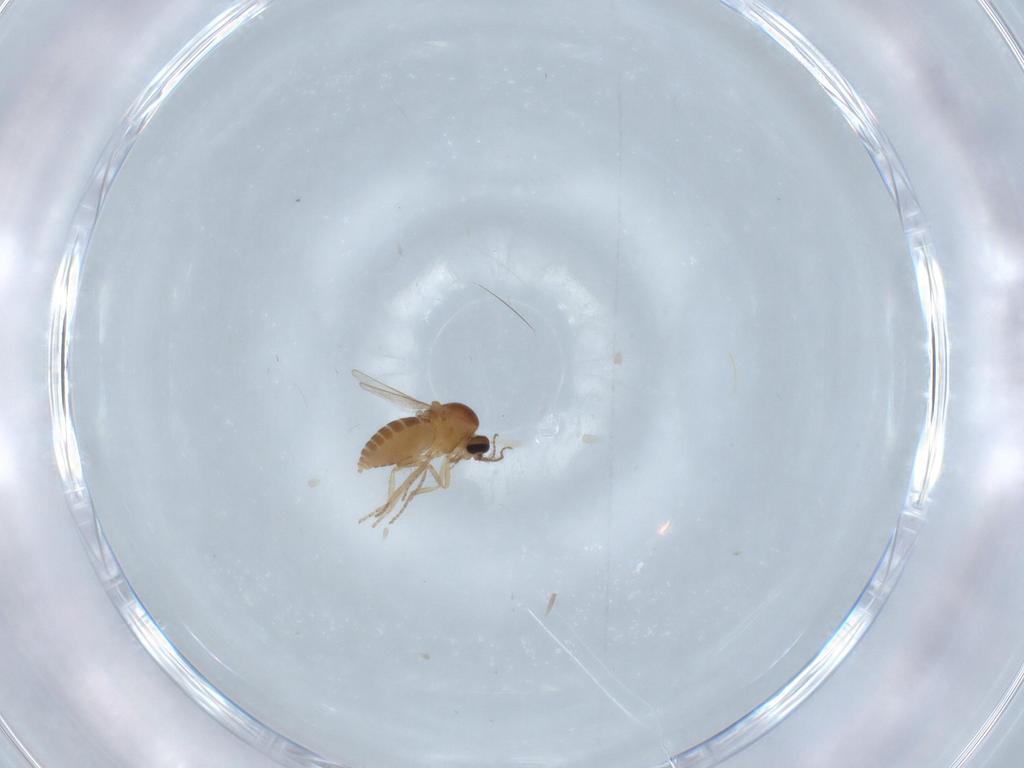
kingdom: Animalia
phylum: Arthropoda
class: Insecta
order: Diptera
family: Ceratopogonidae
